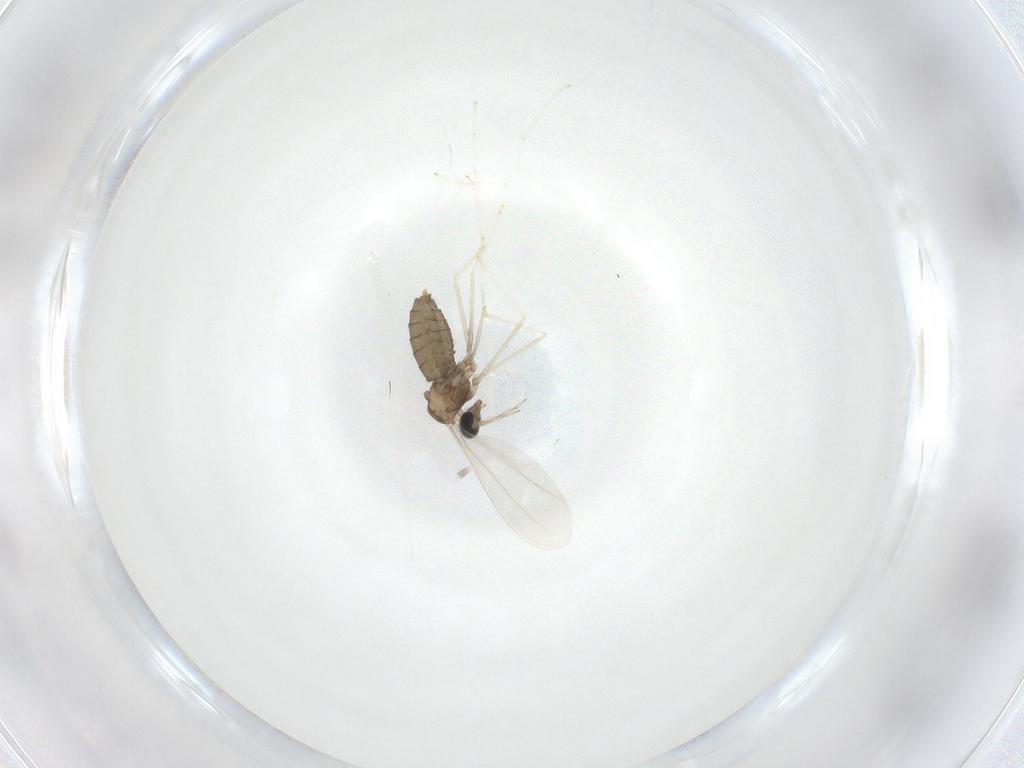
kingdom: Animalia
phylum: Arthropoda
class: Insecta
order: Diptera
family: Cecidomyiidae
